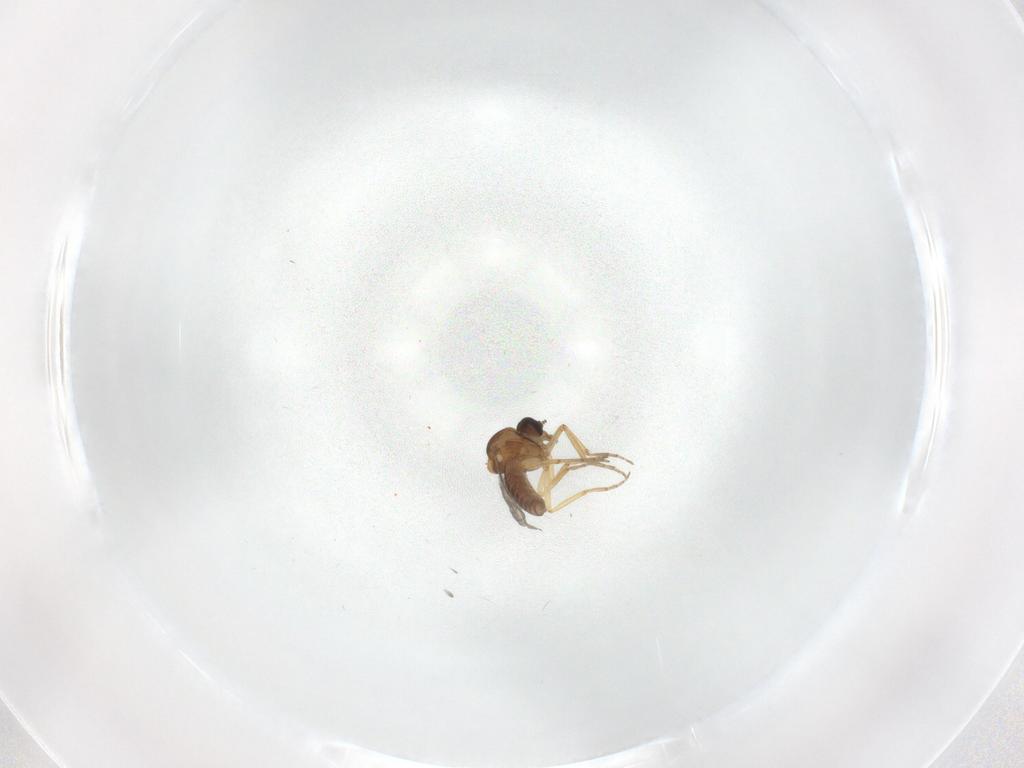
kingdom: Animalia
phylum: Arthropoda
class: Insecta
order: Diptera
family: Ceratopogonidae
